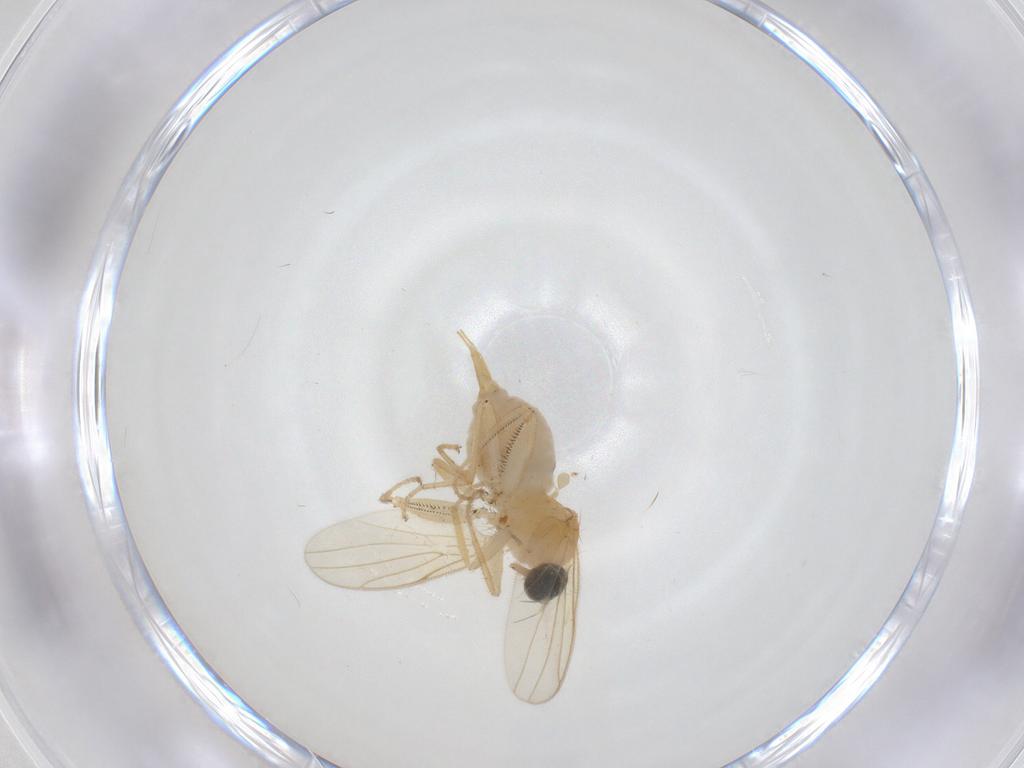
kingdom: Animalia
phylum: Arthropoda
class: Insecta
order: Diptera
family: Hybotidae
